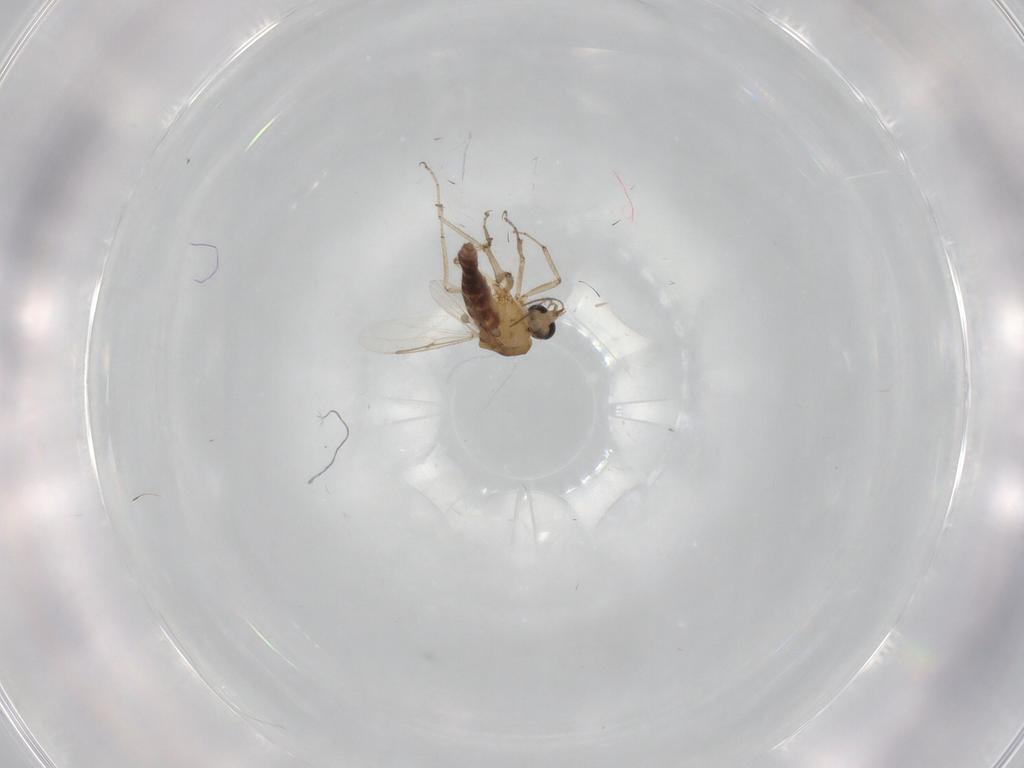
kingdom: Animalia
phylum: Arthropoda
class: Insecta
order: Diptera
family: Ceratopogonidae
